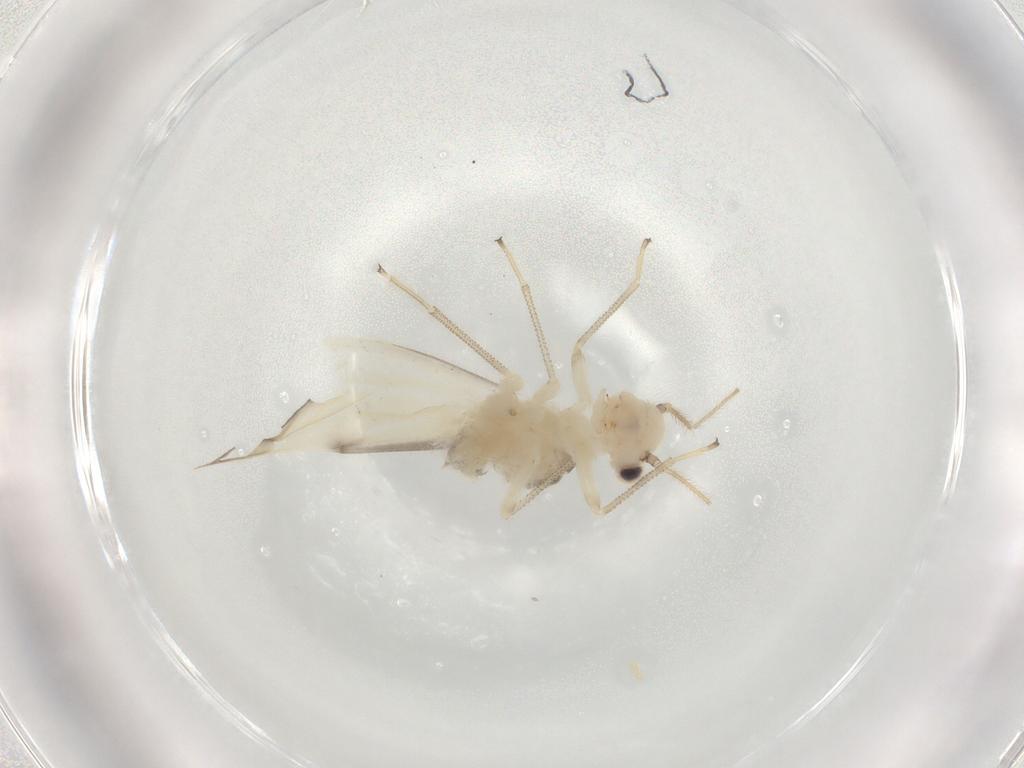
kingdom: Animalia
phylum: Arthropoda
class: Insecta
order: Psocodea
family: Caeciliusidae
